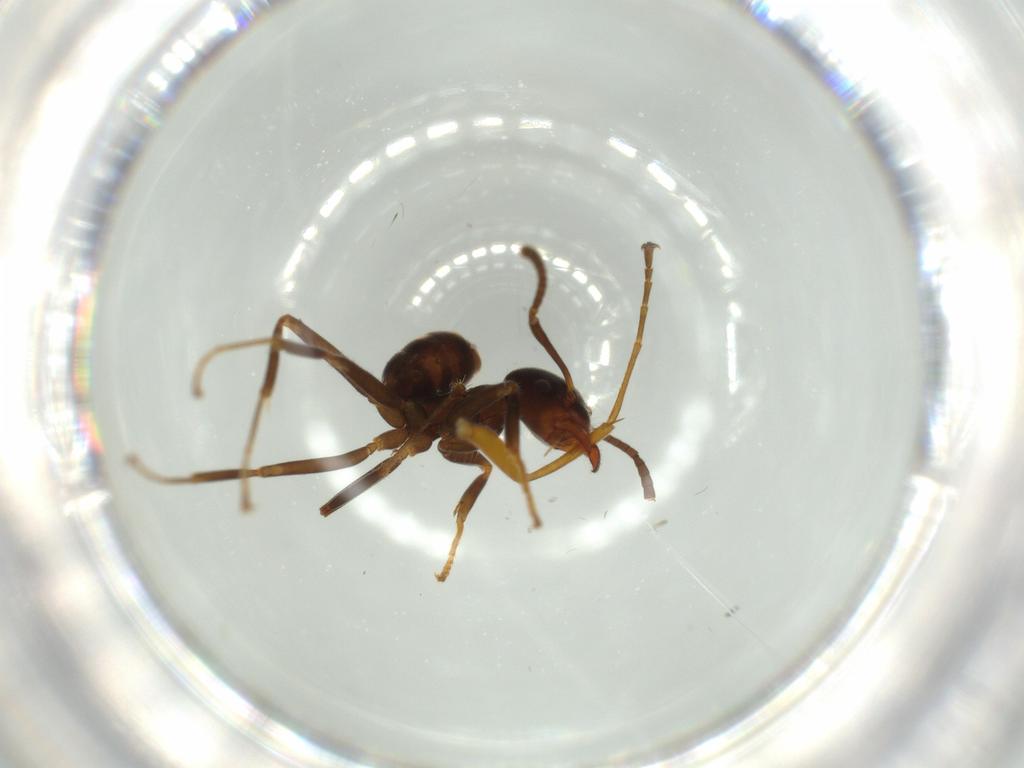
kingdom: Animalia
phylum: Arthropoda
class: Insecta
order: Hymenoptera
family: Formicidae
